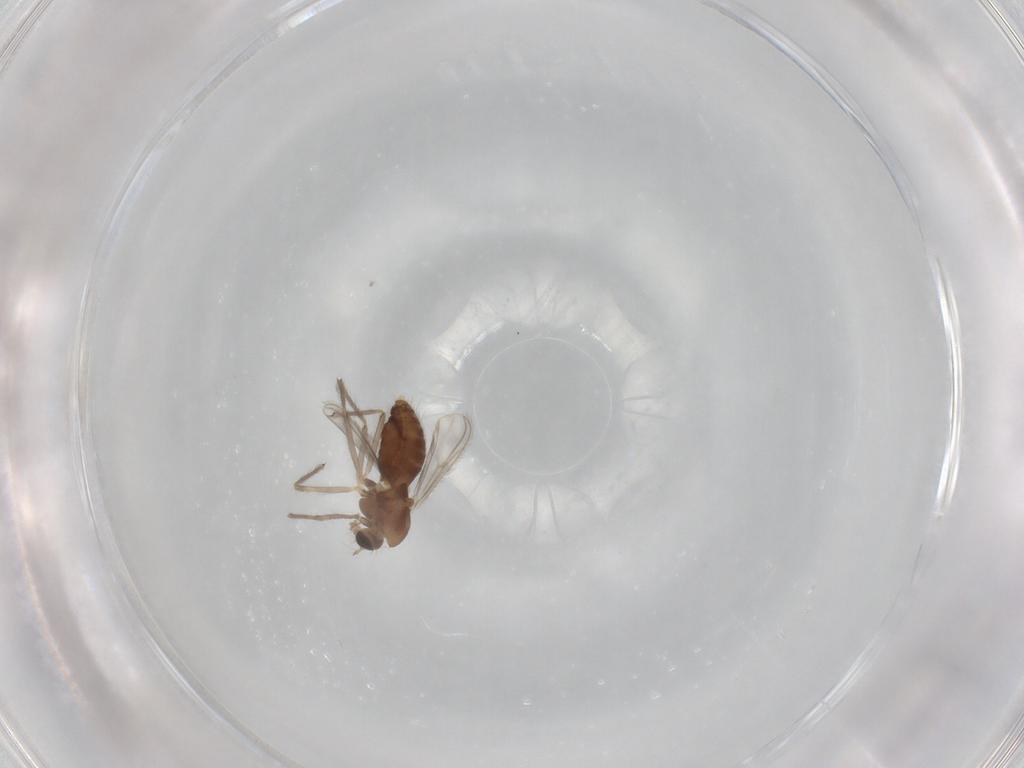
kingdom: Animalia
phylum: Arthropoda
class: Insecta
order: Diptera
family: Chironomidae
